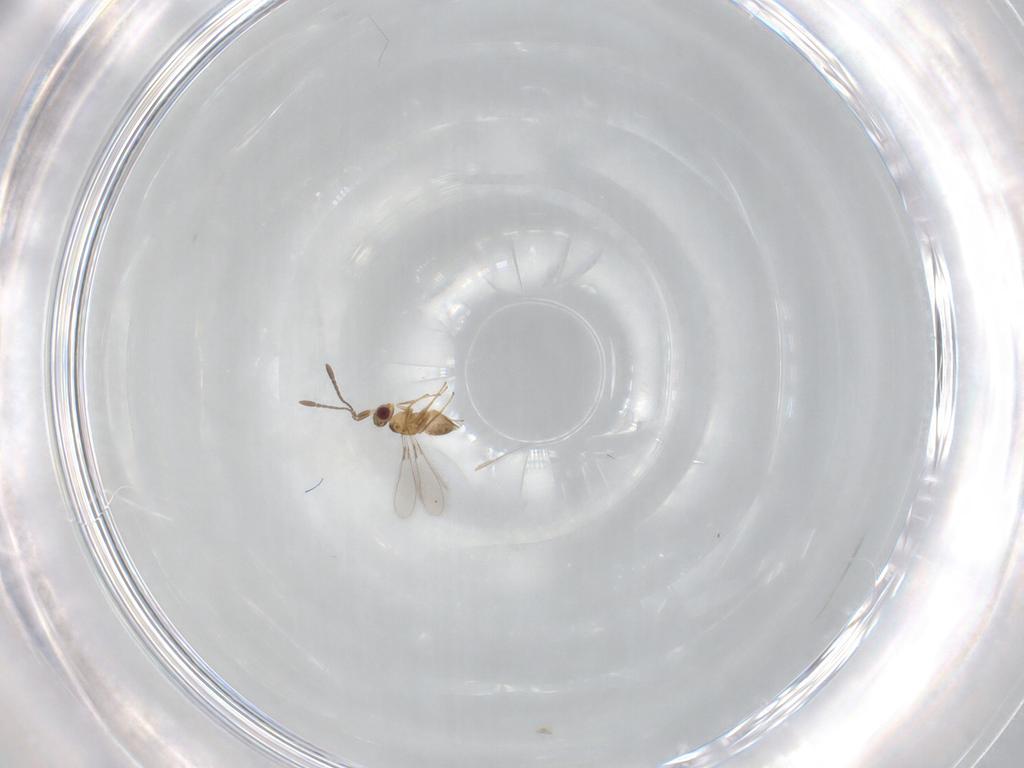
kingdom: Animalia
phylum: Arthropoda
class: Insecta
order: Hymenoptera
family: Mymaridae
